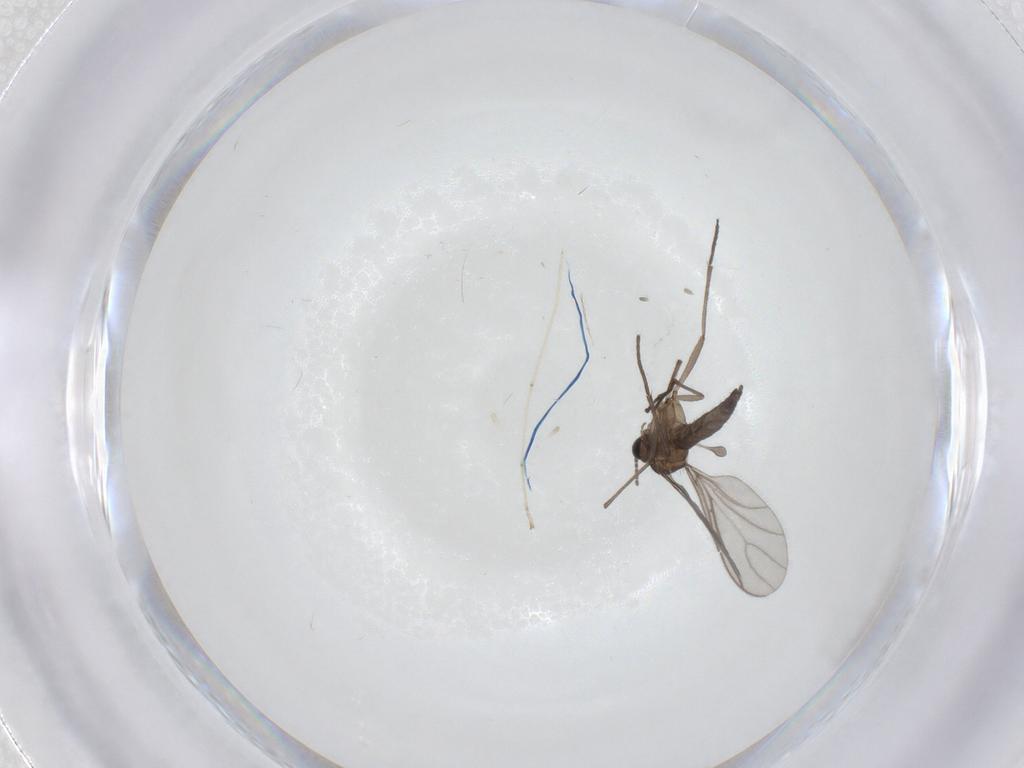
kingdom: Animalia
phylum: Arthropoda
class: Insecta
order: Diptera
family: Sciaridae
